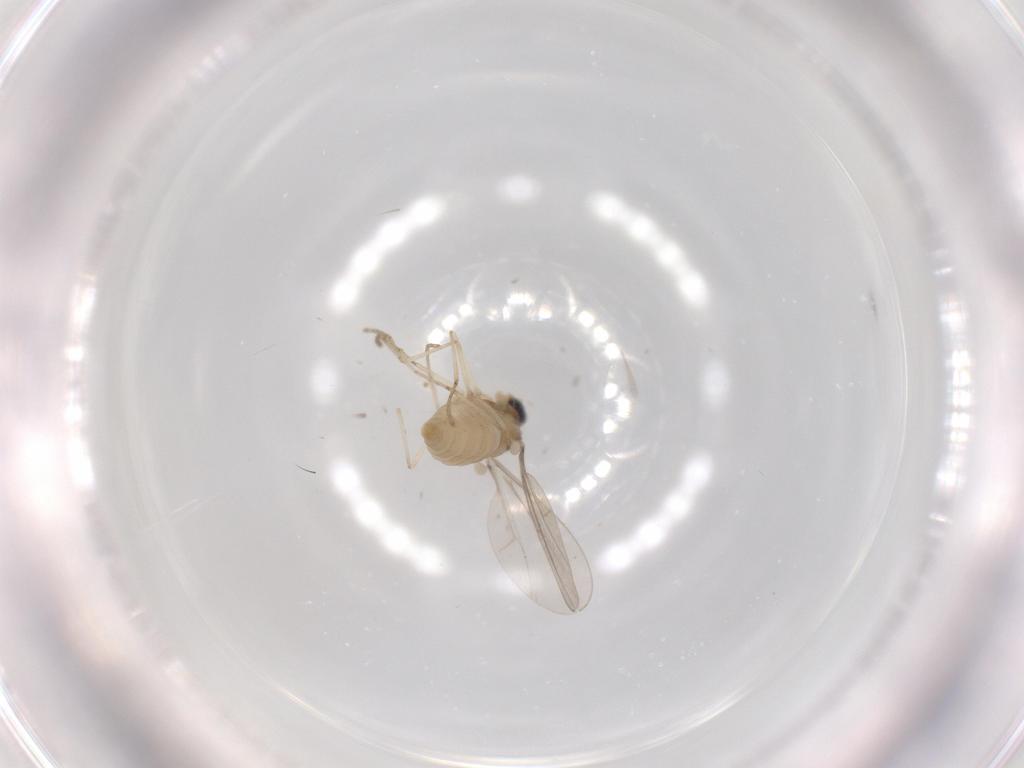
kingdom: Animalia
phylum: Arthropoda
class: Insecta
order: Diptera
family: Cecidomyiidae
